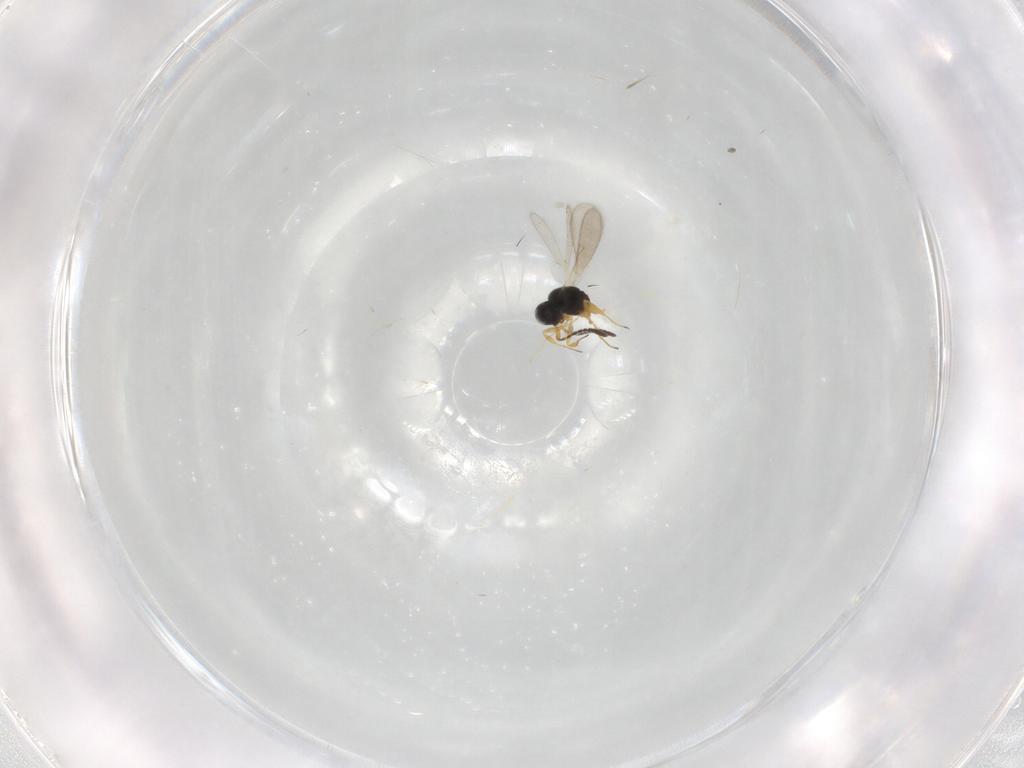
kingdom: Animalia
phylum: Arthropoda
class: Insecta
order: Hymenoptera
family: Scelionidae
